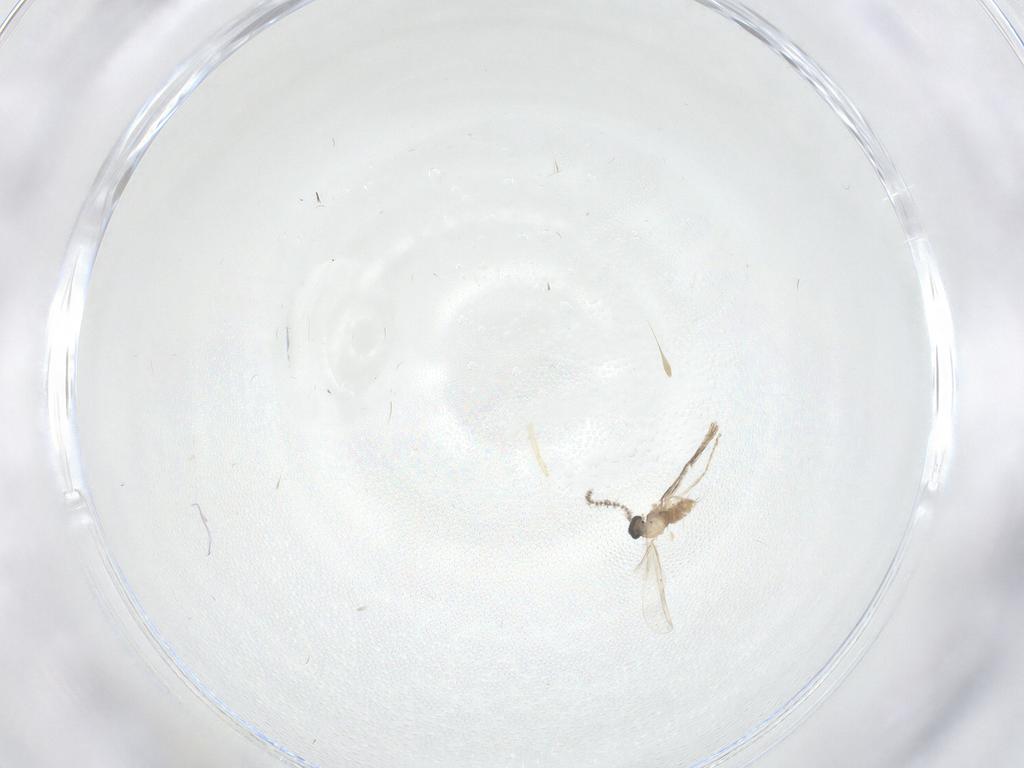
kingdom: Animalia
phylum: Arthropoda
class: Insecta
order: Diptera
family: Cecidomyiidae
